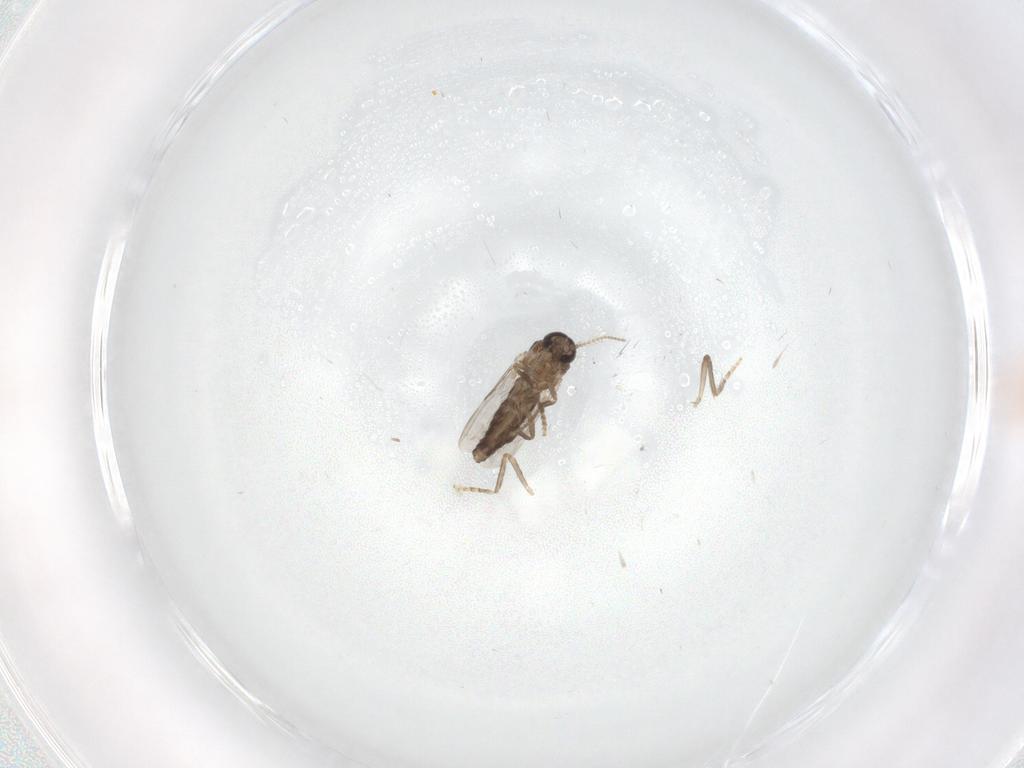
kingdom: Animalia
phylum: Arthropoda
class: Insecta
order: Diptera
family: Ceratopogonidae
